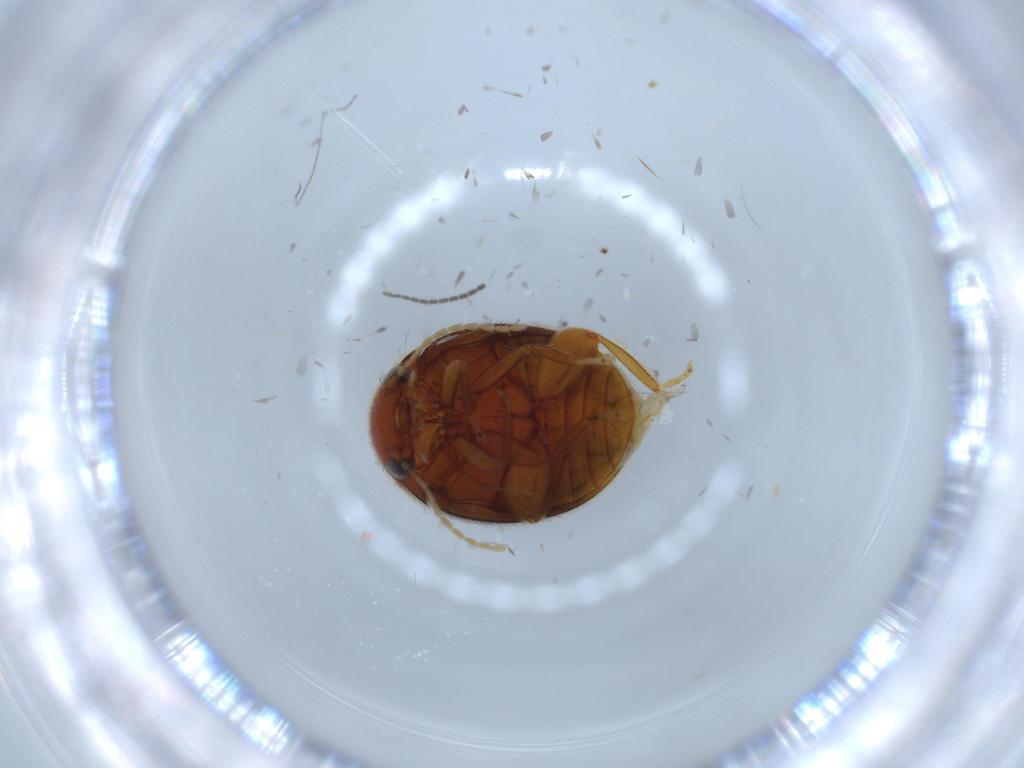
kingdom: Animalia
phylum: Arthropoda
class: Insecta
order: Coleoptera
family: Scirtidae
